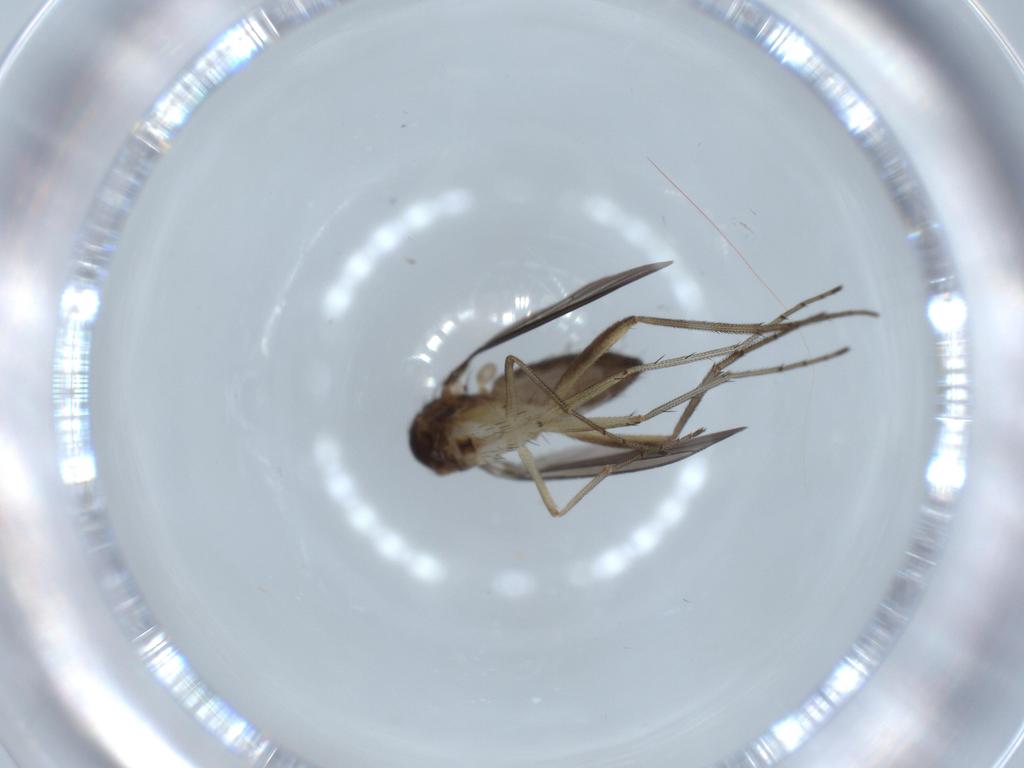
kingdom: Animalia
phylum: Arthropoda
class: Insecta
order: Diptera
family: Dolichopodidae
